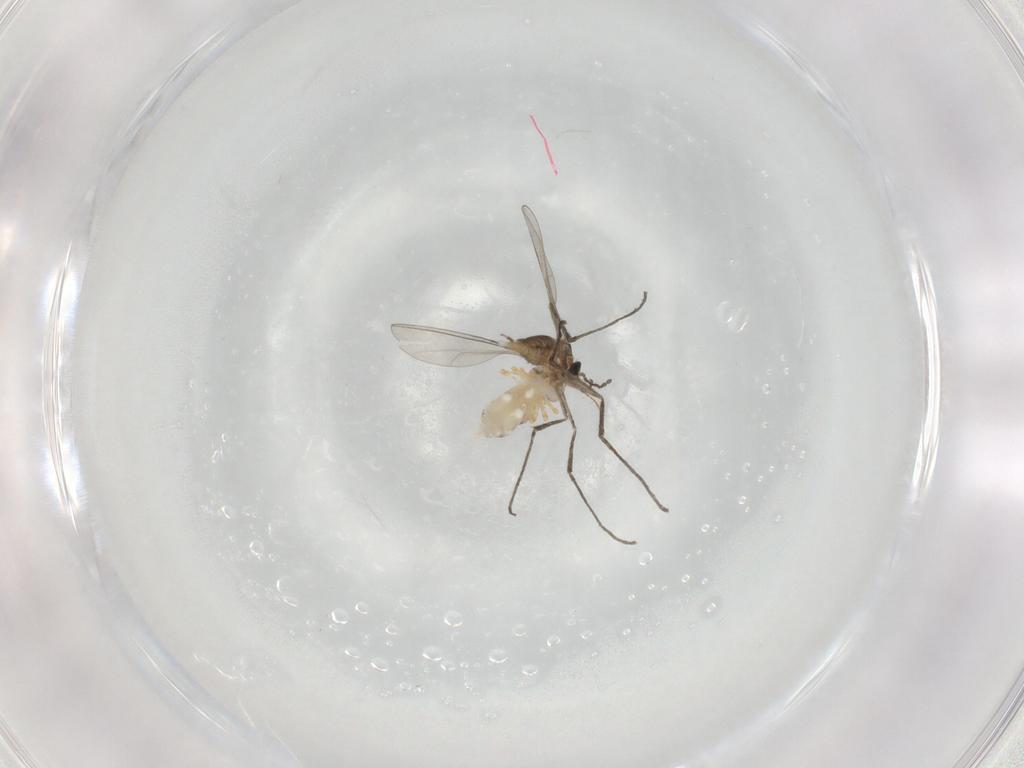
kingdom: Animalia
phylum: Arthropoda
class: Insecta
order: Diptera
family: Cecidomyiidae
